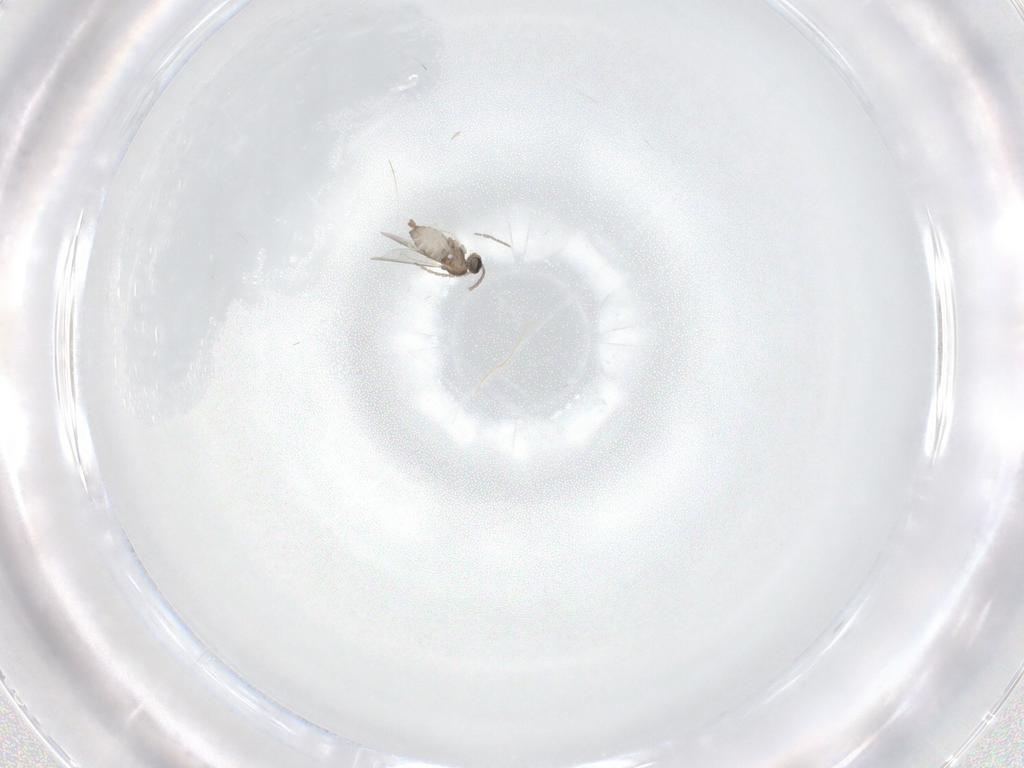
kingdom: Animalia
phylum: Arthropoda
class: Insecta
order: Diptera
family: Cecidomyiidae
